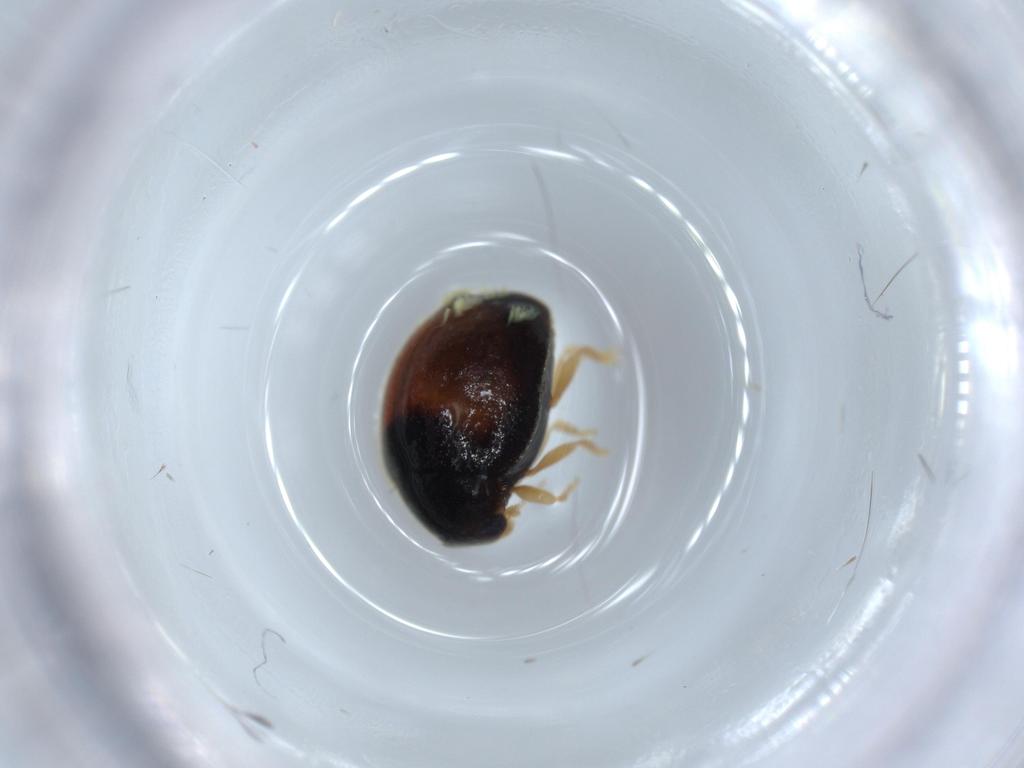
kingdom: Animalia
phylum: Arthropoda
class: Insecta
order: Coleoptera
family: Coccinellidae
